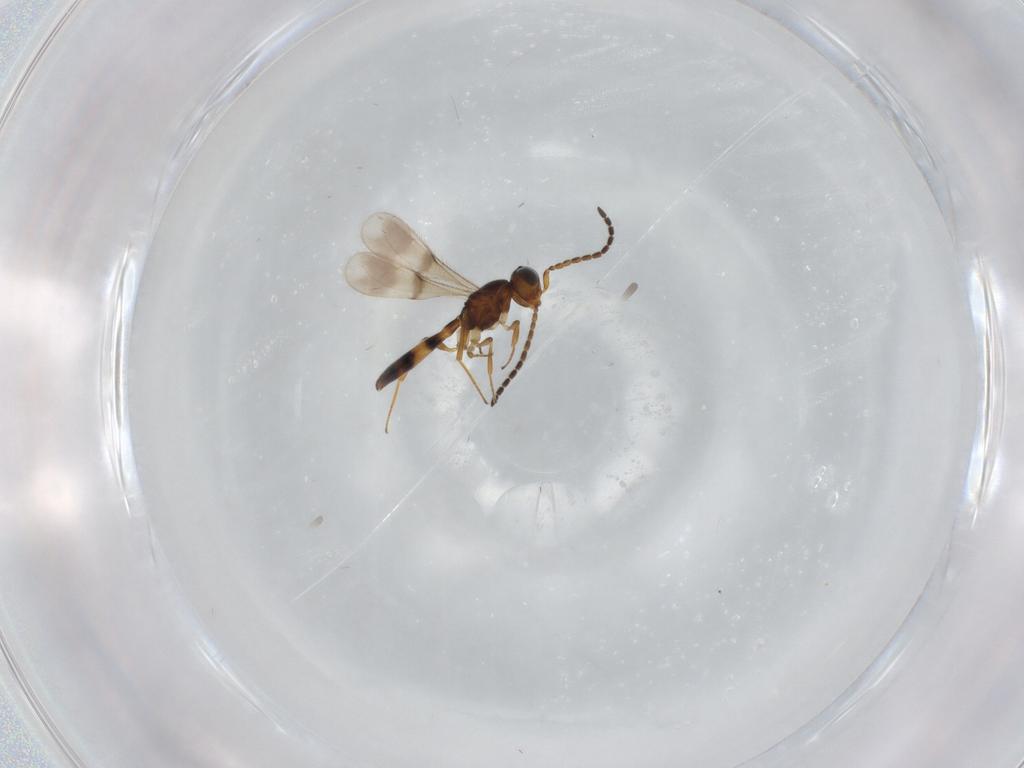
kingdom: Animalia
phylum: Arthropoda
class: Insecta
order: Hymenoptera
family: Scelionidae
